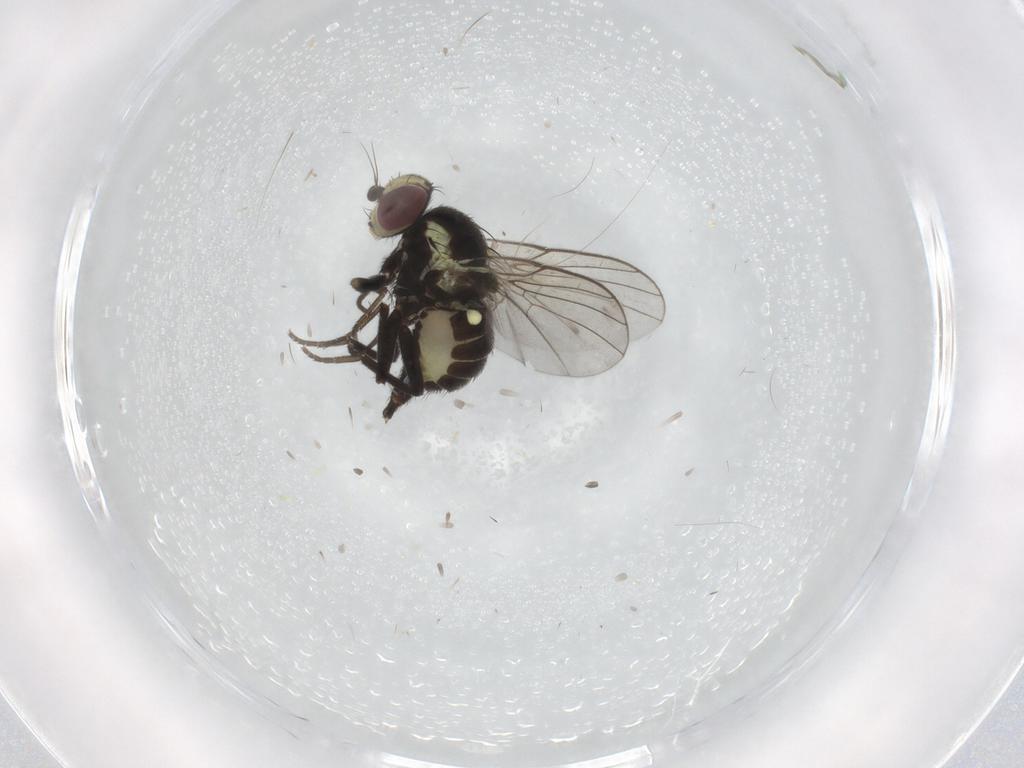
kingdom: Animalia
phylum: Arthropoda
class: Insecta
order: Diptera
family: Agromyzidae
